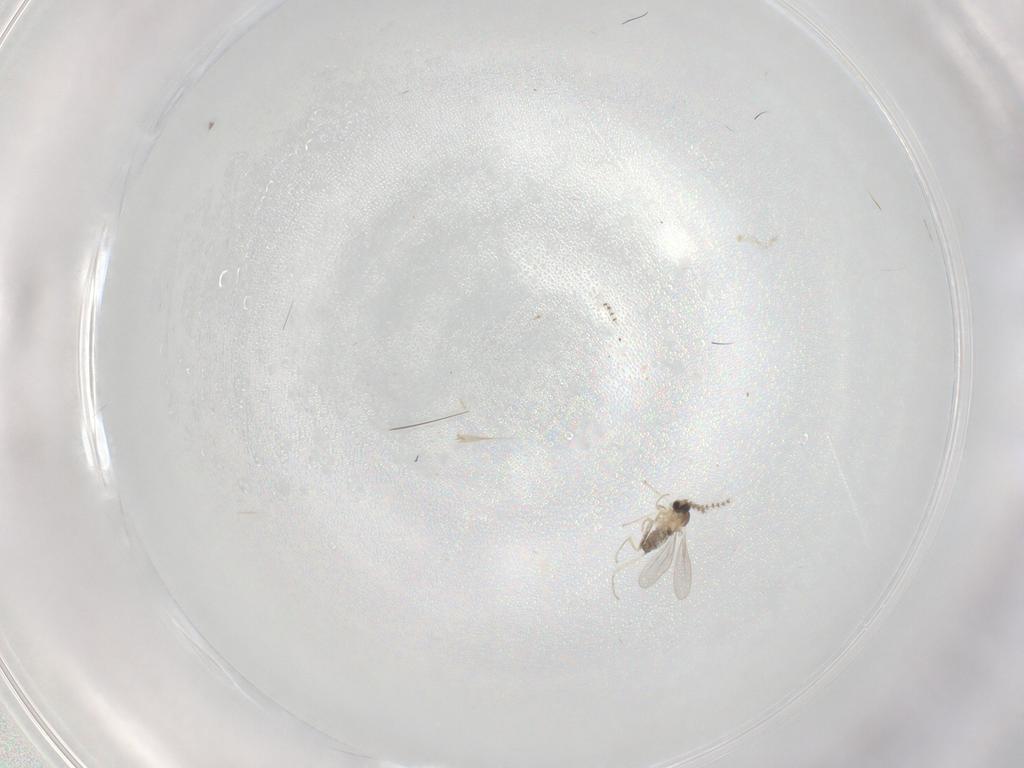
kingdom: Animalia
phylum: Arthropoda
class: Insecta
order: Diptera
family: Cecidomyiidae
